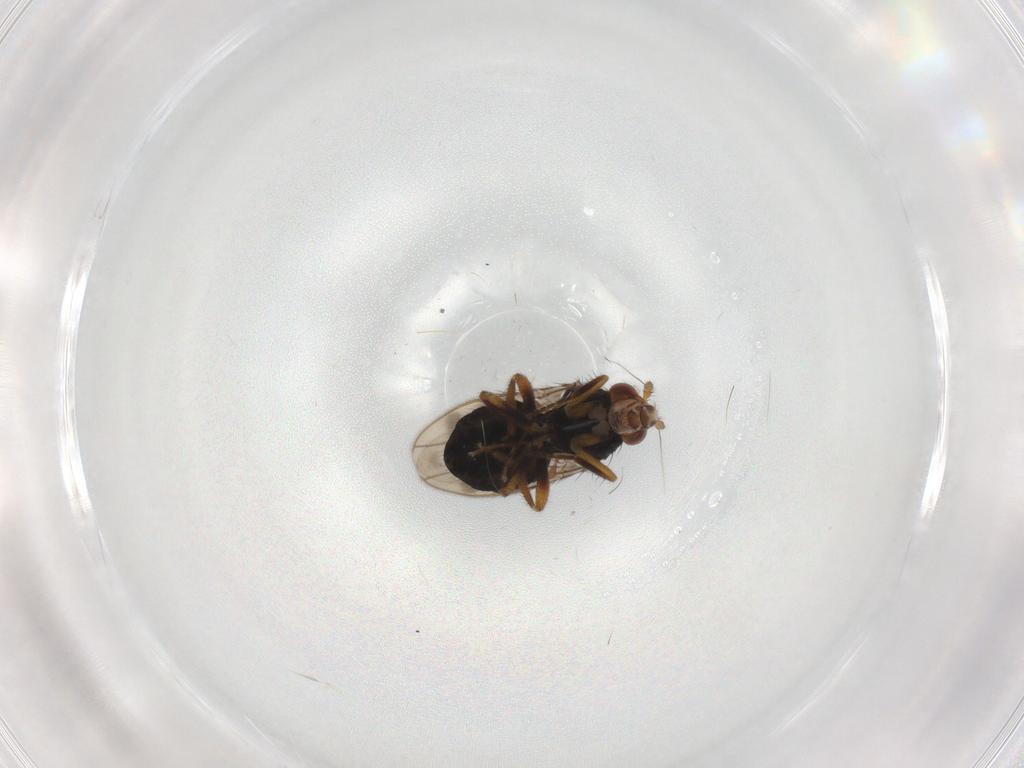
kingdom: Animalia
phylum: Arthropoda
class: Insecta
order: Diptera
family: Sphaeroceridae
